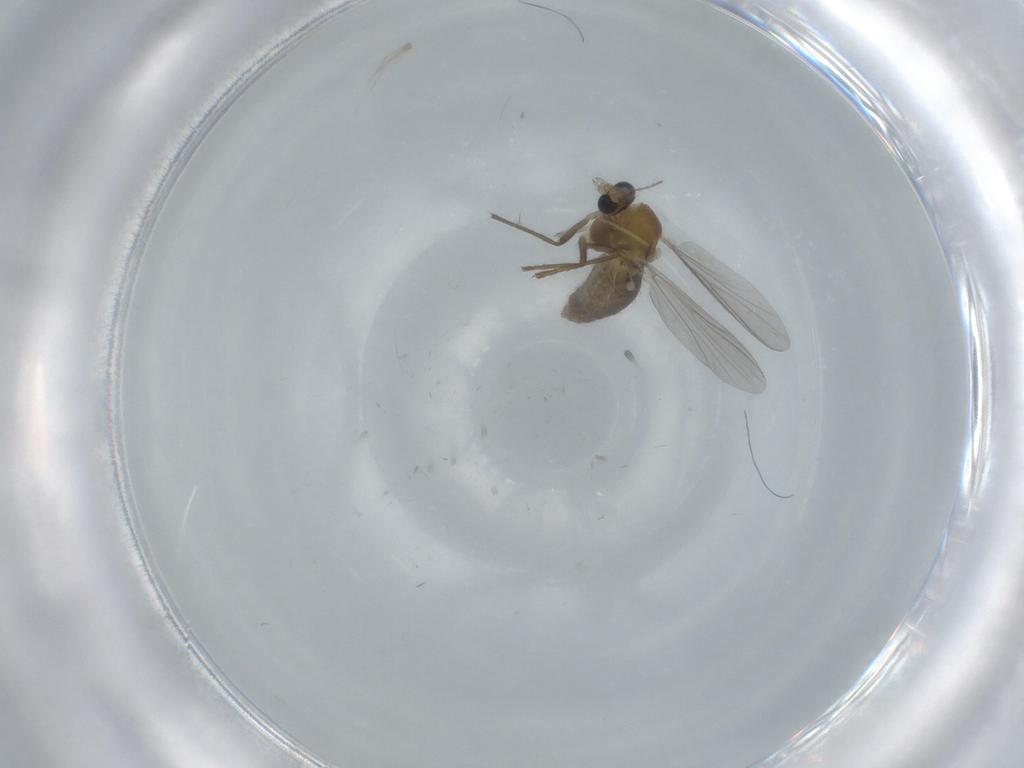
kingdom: Animalia
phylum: Arthropoda
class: Insecta
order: Diptera
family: Chironomidae
